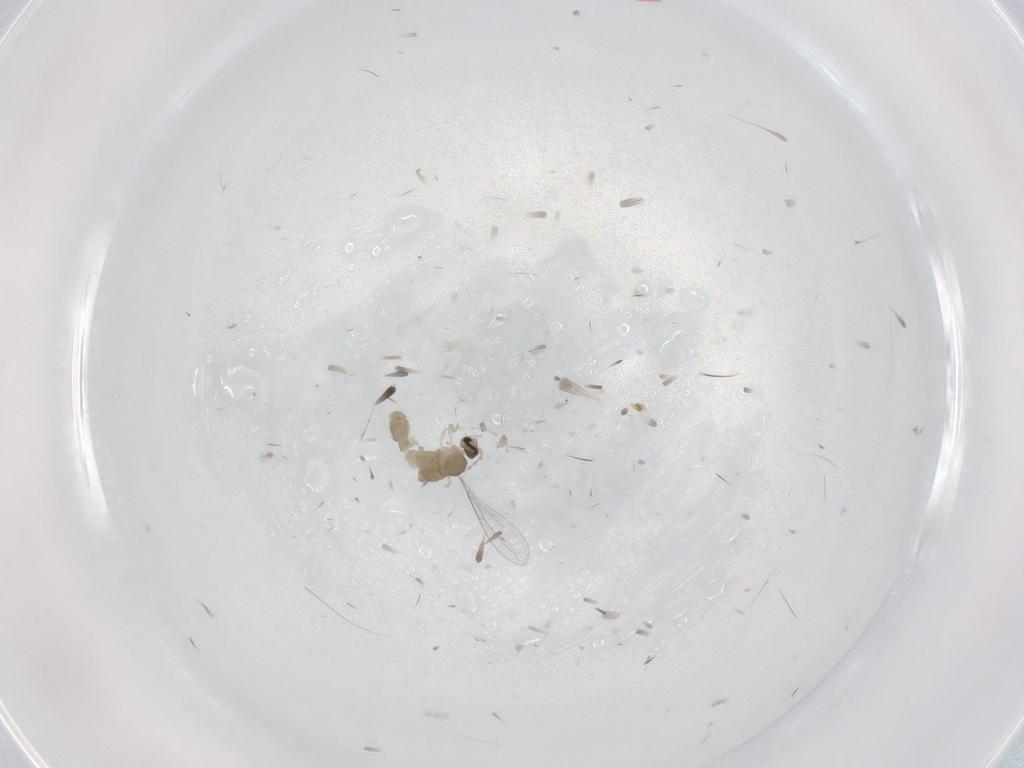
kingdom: Animalia
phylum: Arthropoda
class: Insecta
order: Diptera
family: Cecidomyiidae
